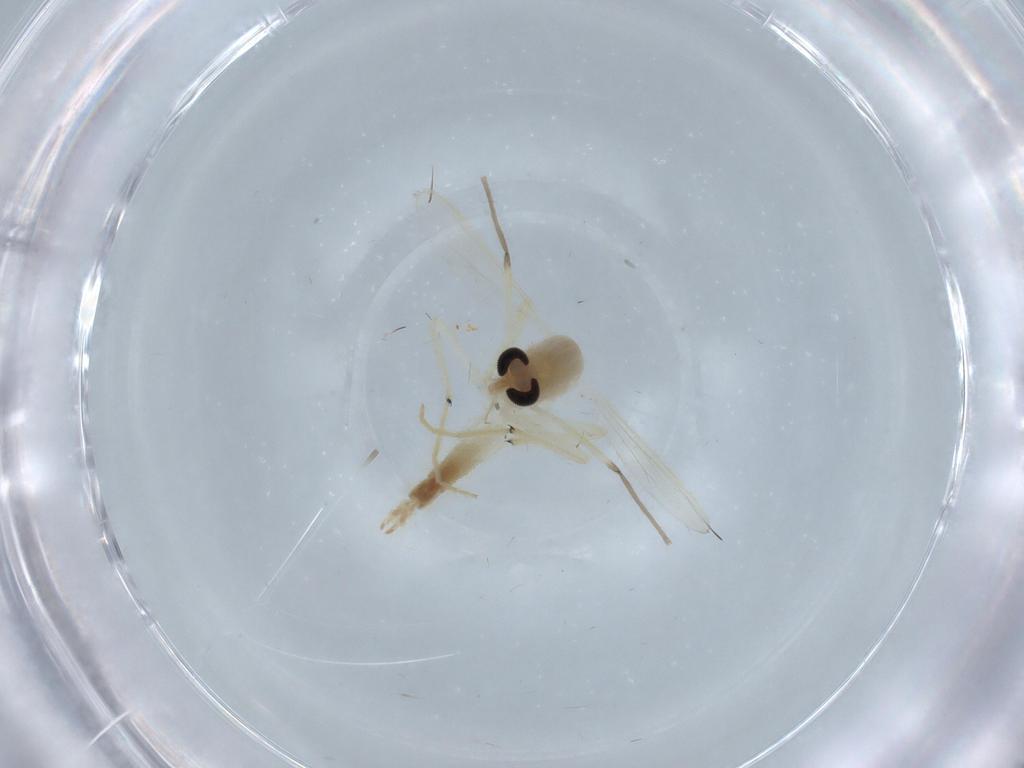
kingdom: Animalia
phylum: Arthropoda
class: Insecta
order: Diptera
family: Chironomidae
